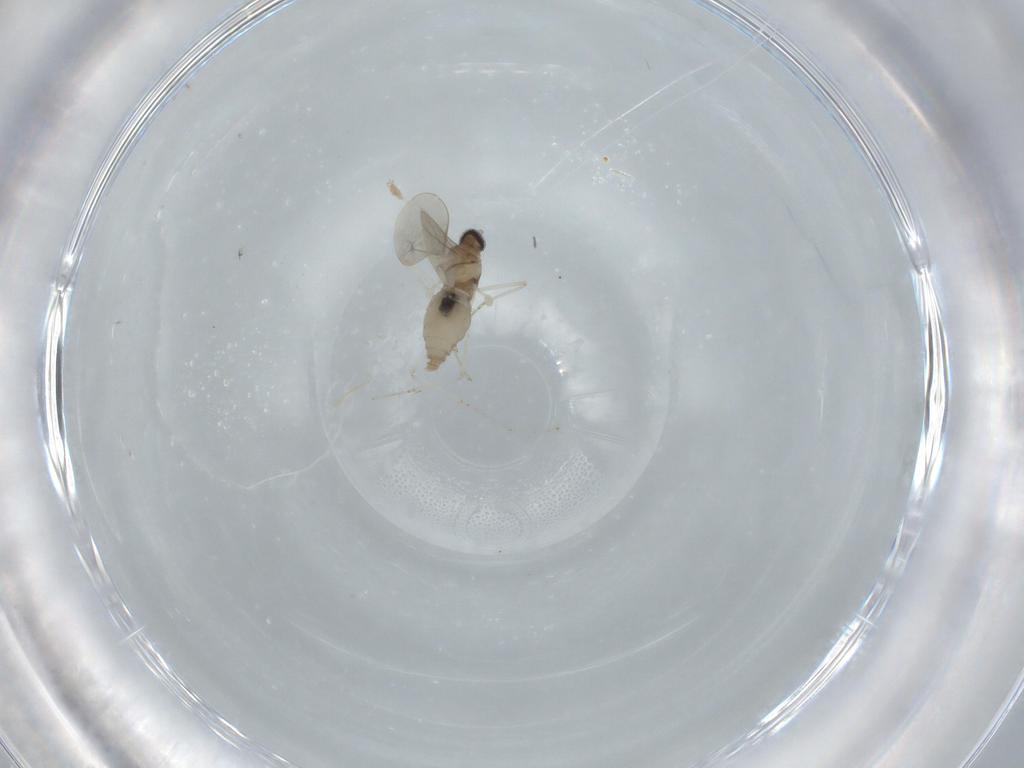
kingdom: Animalia
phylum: Arthropoda
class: Insecta
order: Diptera
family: Cecidomyiidae
